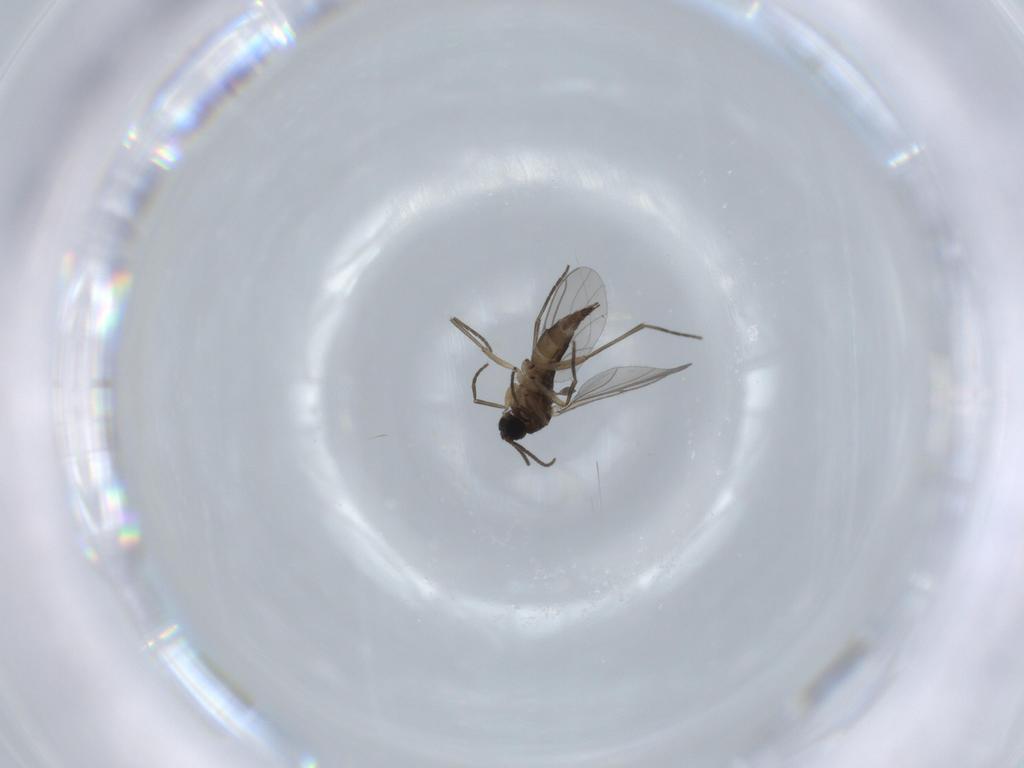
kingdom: Animalia
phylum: Arthropoda
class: Insecta
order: Diptera
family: Sciaridae
